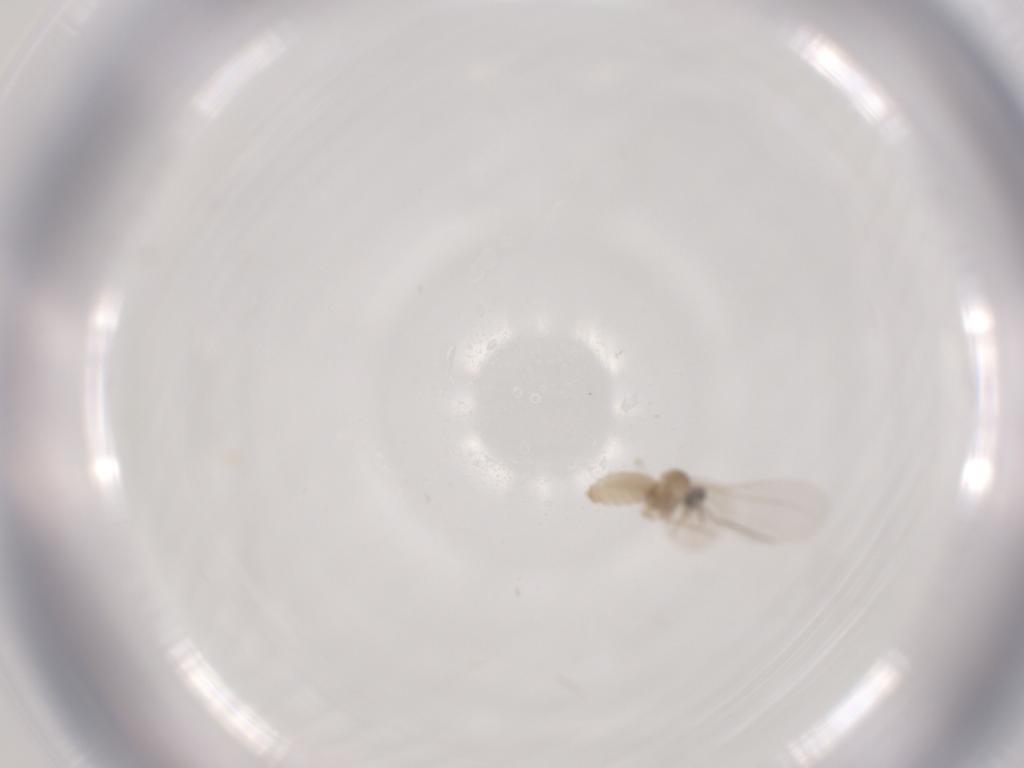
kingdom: Animalia
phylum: Arthropoda
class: Insecta
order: Diptera
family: Cecidomyiidae
